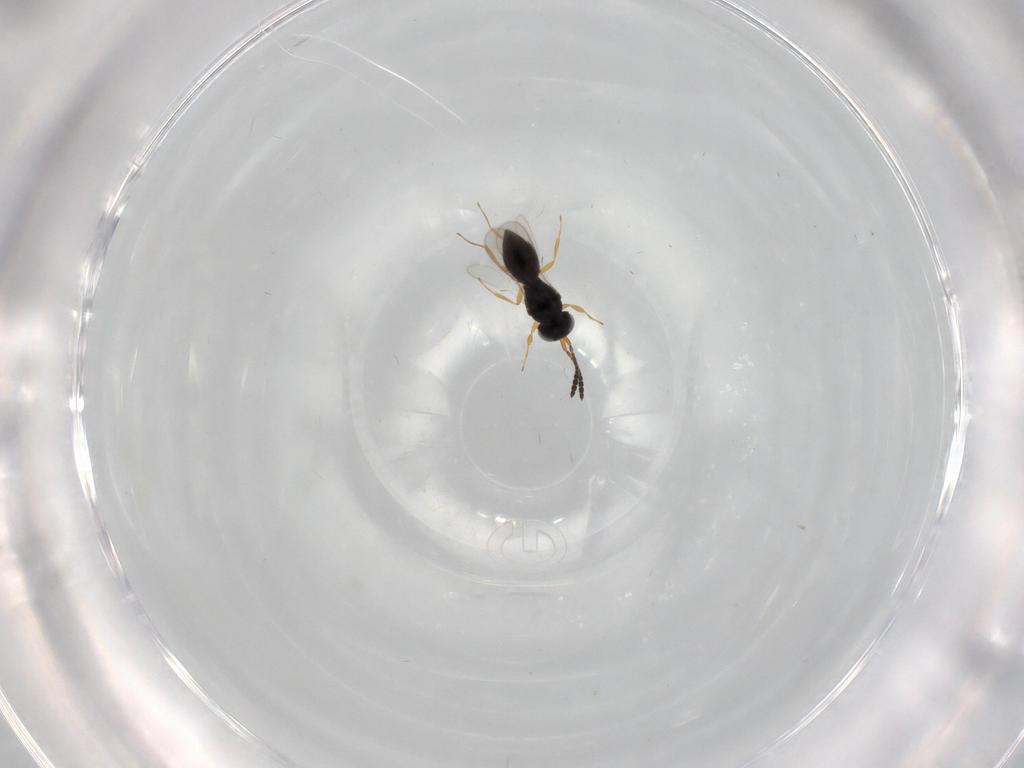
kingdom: Animalia
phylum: Arthropoda
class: Insecta
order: Hymenoptera
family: Scelionidae
